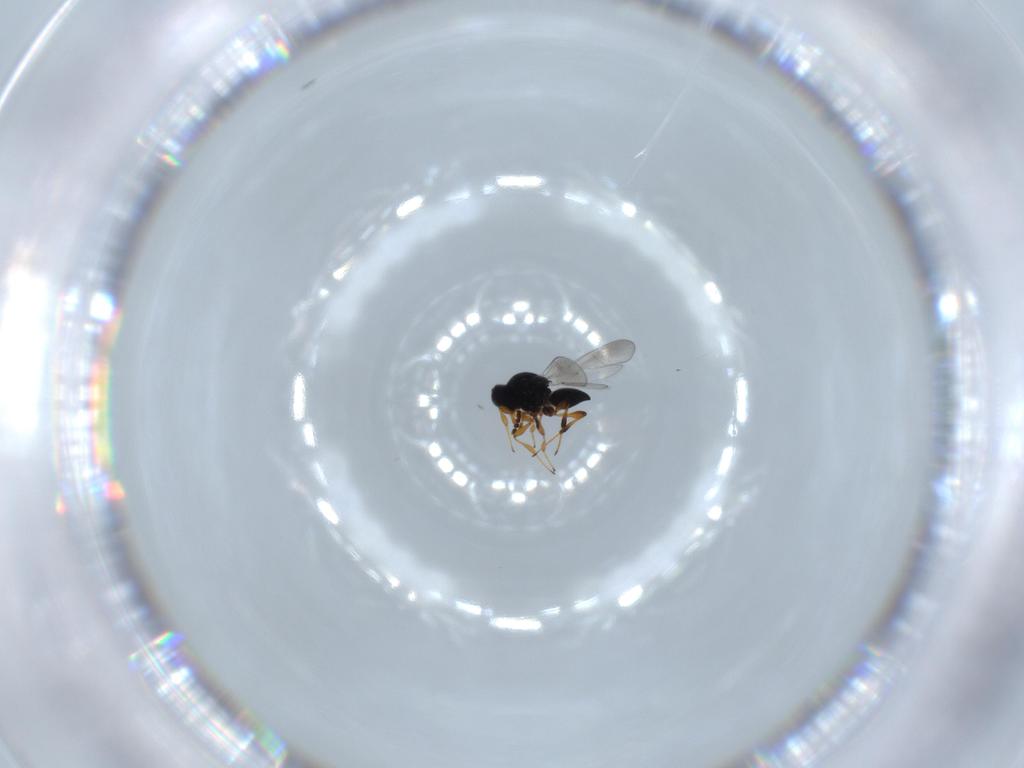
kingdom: Animalia
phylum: Arthropoda
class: Insecta
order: Hymenoptera
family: Platygastridae
